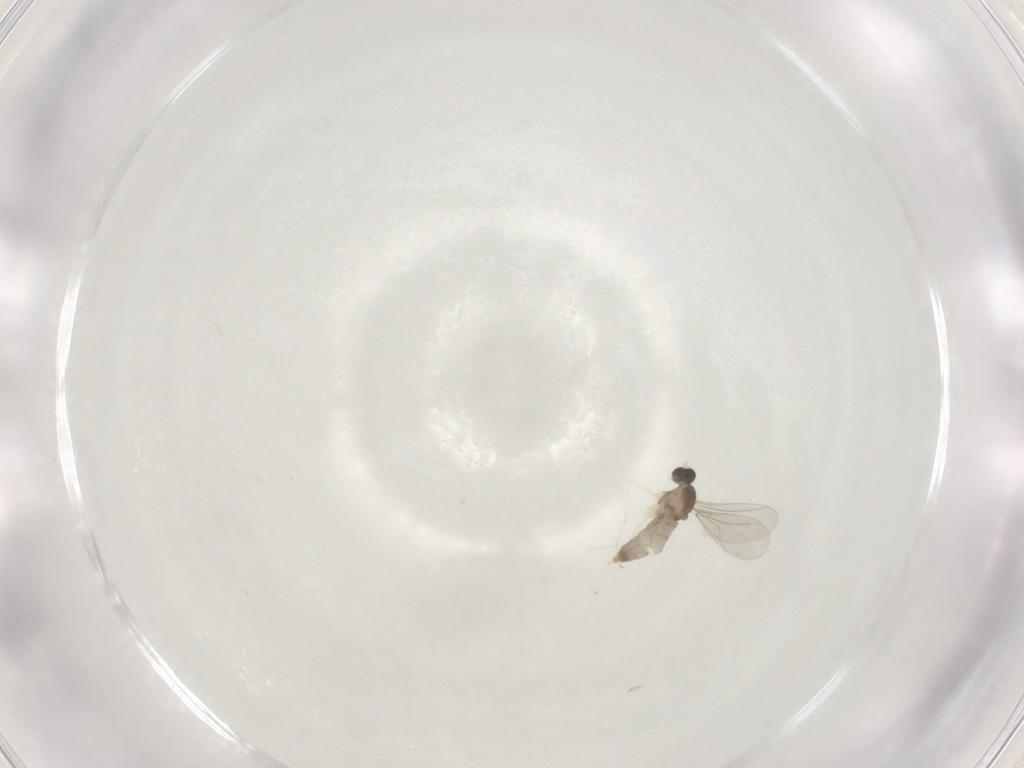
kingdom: Animalia
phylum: Arthropoda
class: Insecta
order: Diptera
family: Cecidomyiidae
